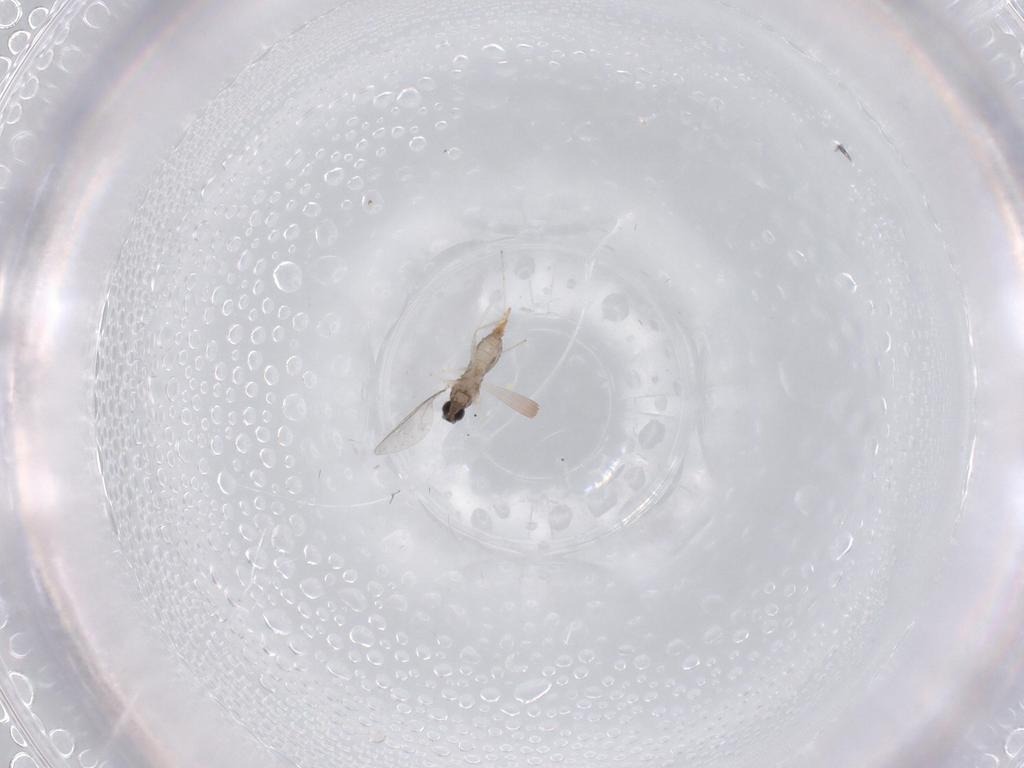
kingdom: Animalia
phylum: Arthropoda
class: Insecta
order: Diptera
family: Cecidomyiidae
